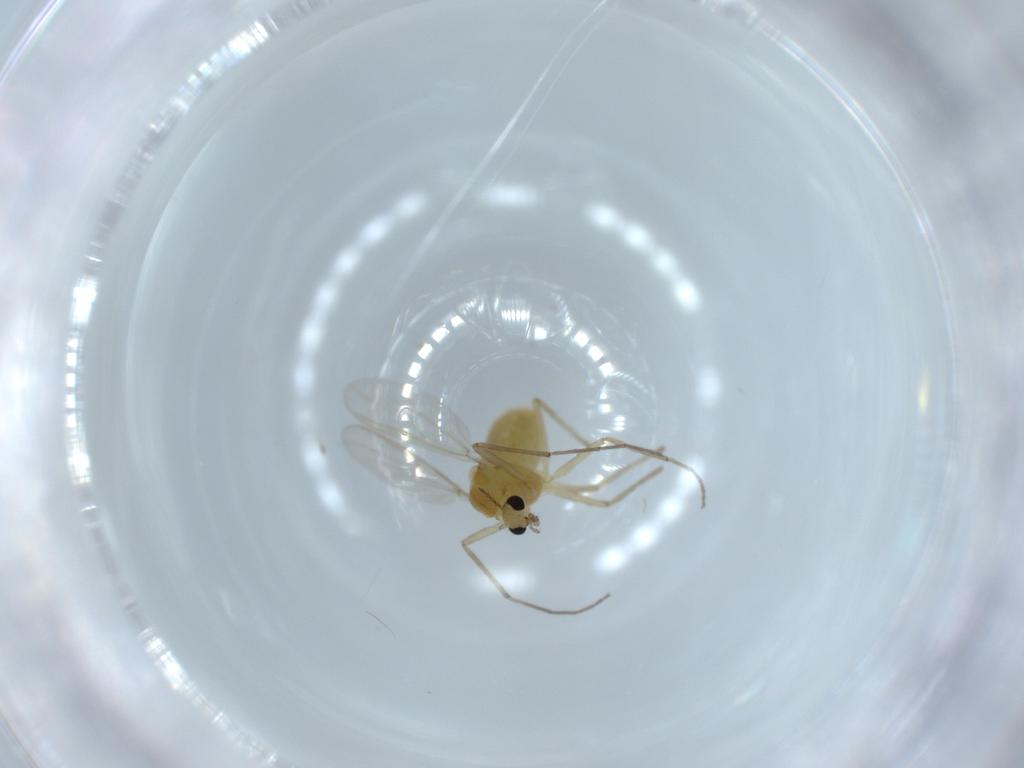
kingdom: Animalia
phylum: Arthropoda
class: Insecta
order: Diptera
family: Chironomidae
